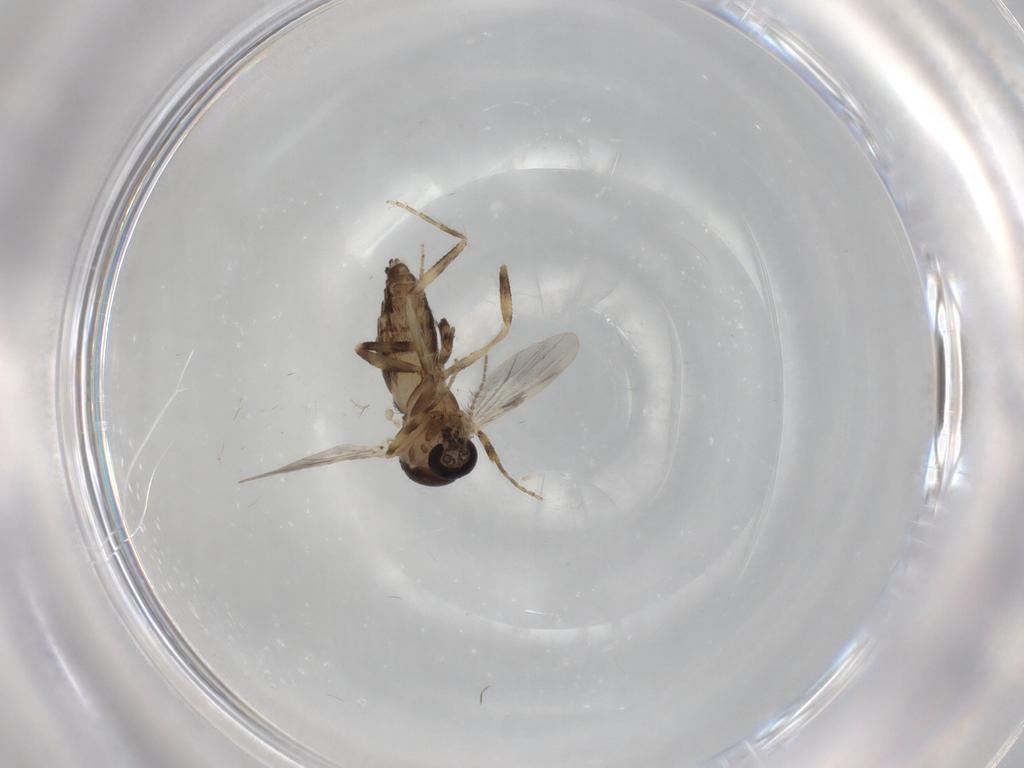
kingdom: Animalia
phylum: Arthropoda
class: Insecta
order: Diptera
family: Ceratopogonidae
